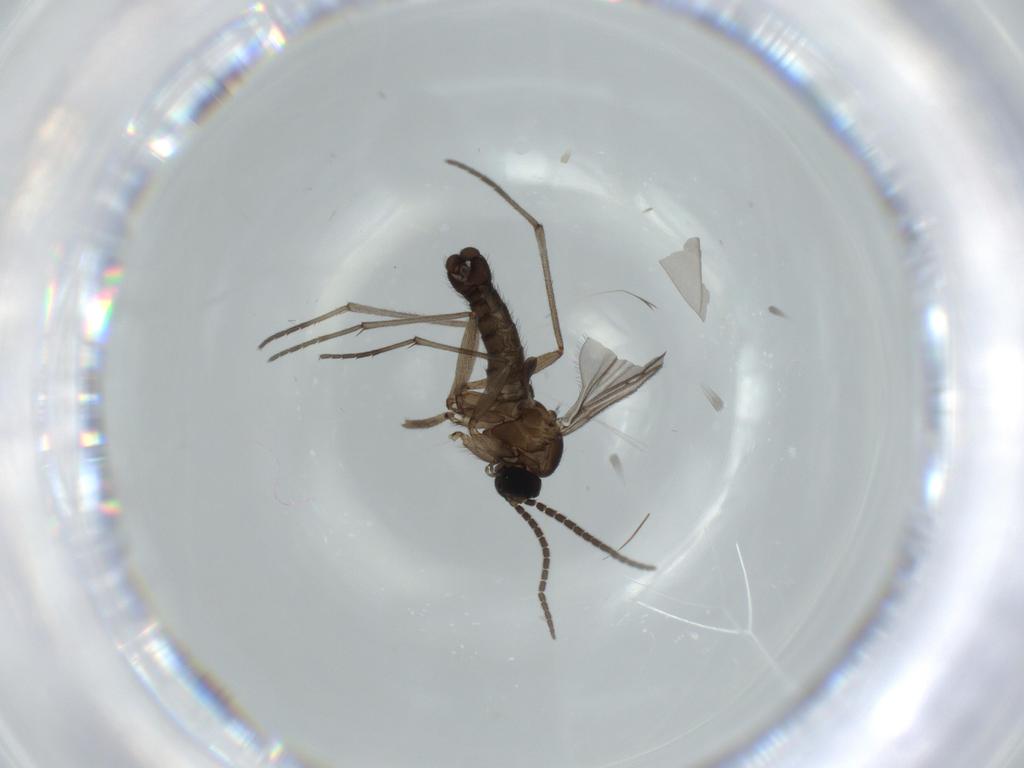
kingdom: Animalia
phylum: Arthropoda
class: Insecta
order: Diptera
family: Sciaridae
